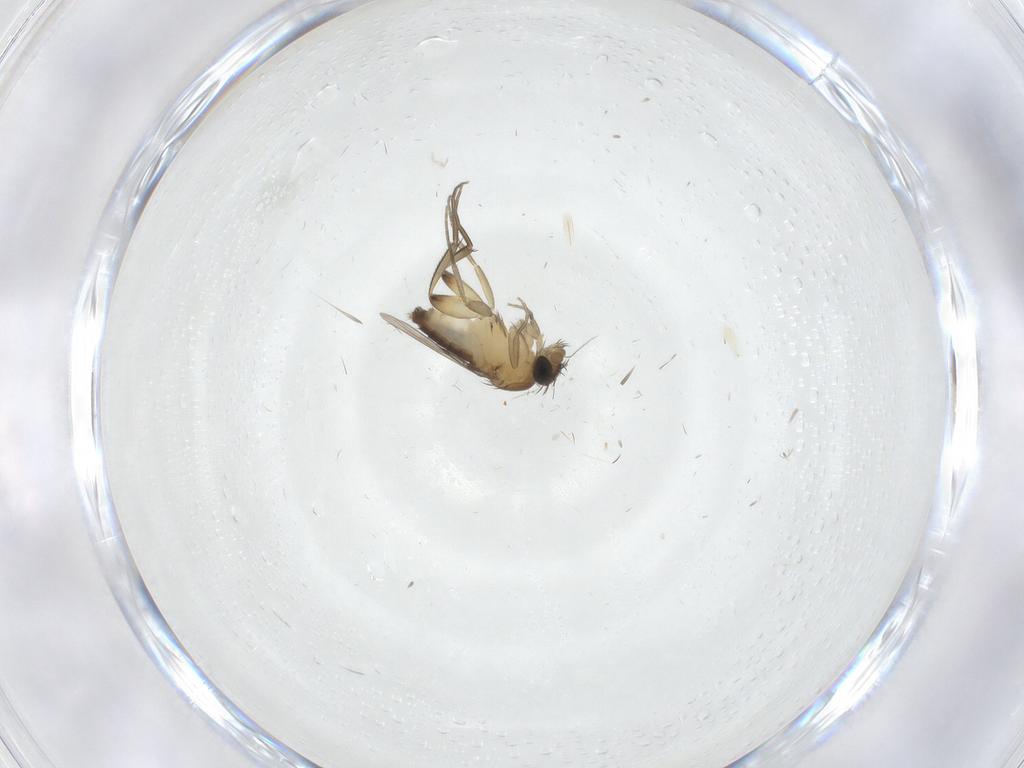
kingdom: Animalia
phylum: Arthropoda
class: Insecta
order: Diptera
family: Phoridae
